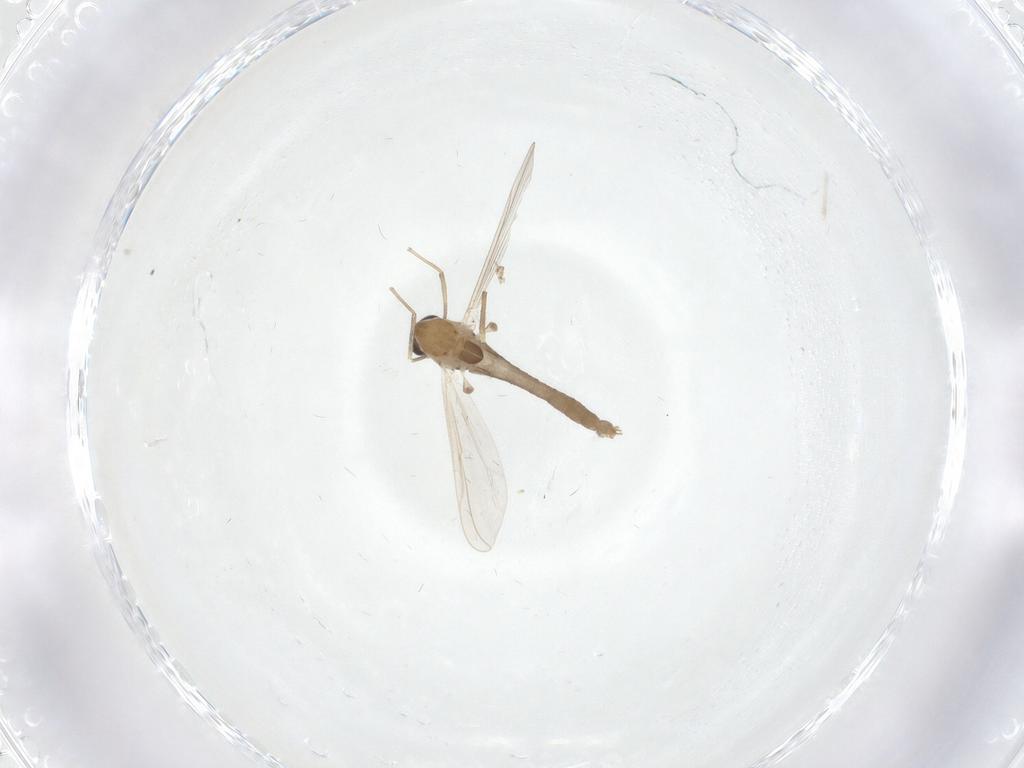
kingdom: Animalia
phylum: Arthropoda
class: Insecta
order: Diptera
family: Chironomidae
